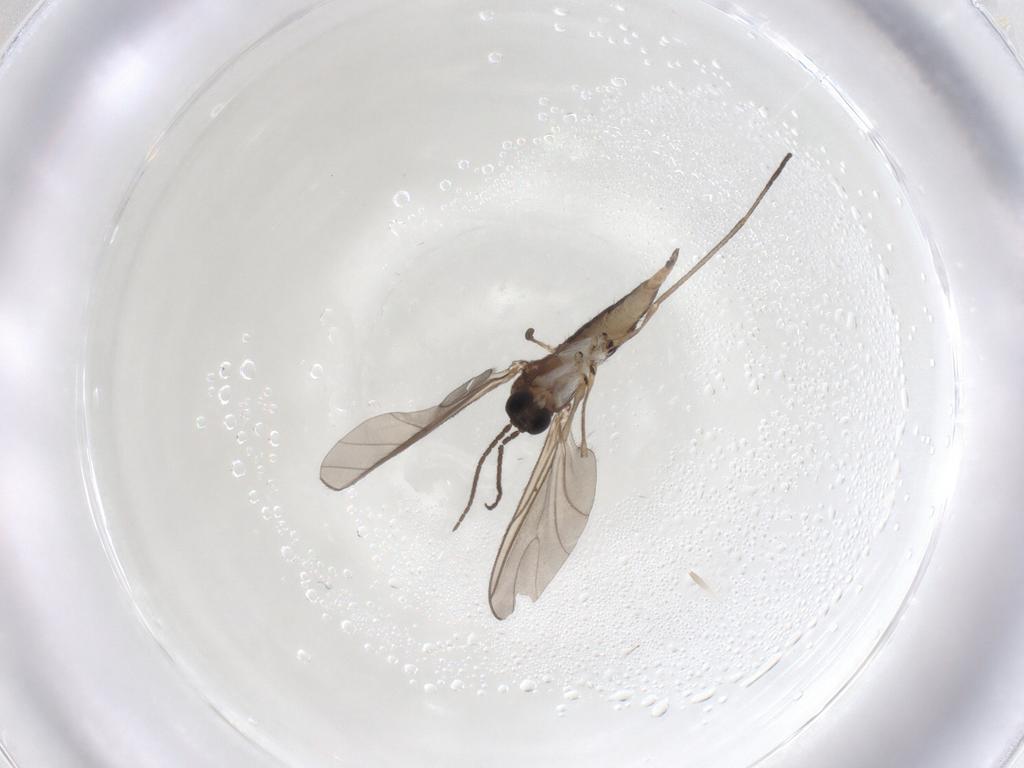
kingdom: Animalia
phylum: Arthropoda
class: Insecta
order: Diptera
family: Sciaridae
